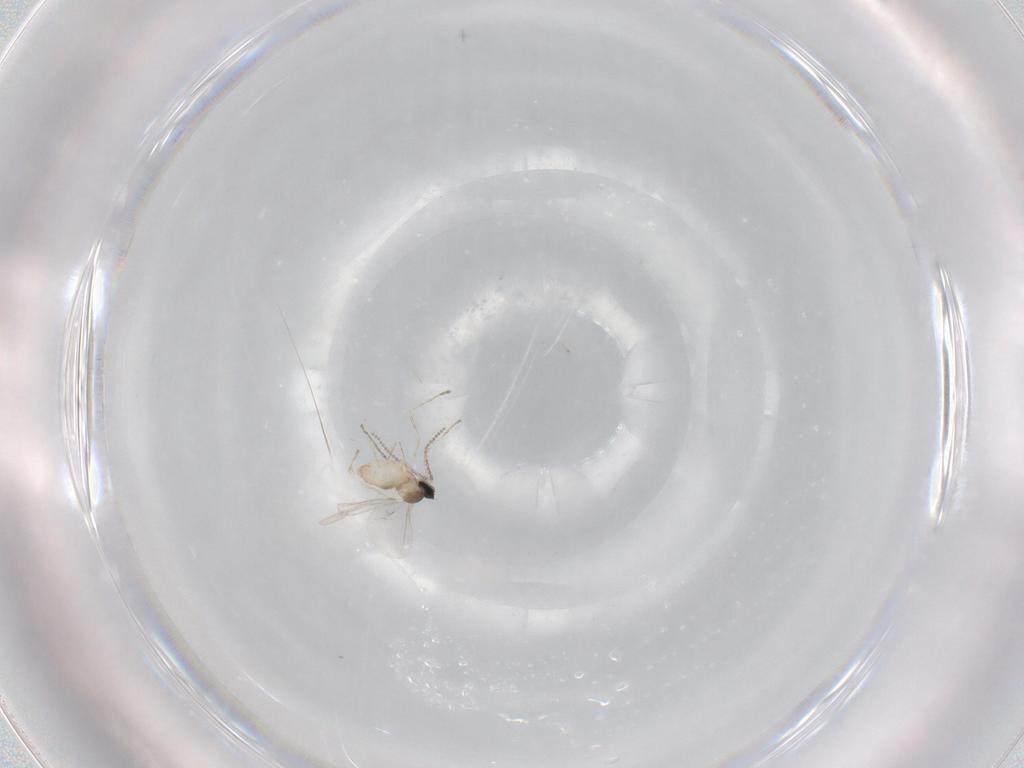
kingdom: Animalia
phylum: Arthropoda
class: Insecta
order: Diptera
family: Cecidomyiidae
